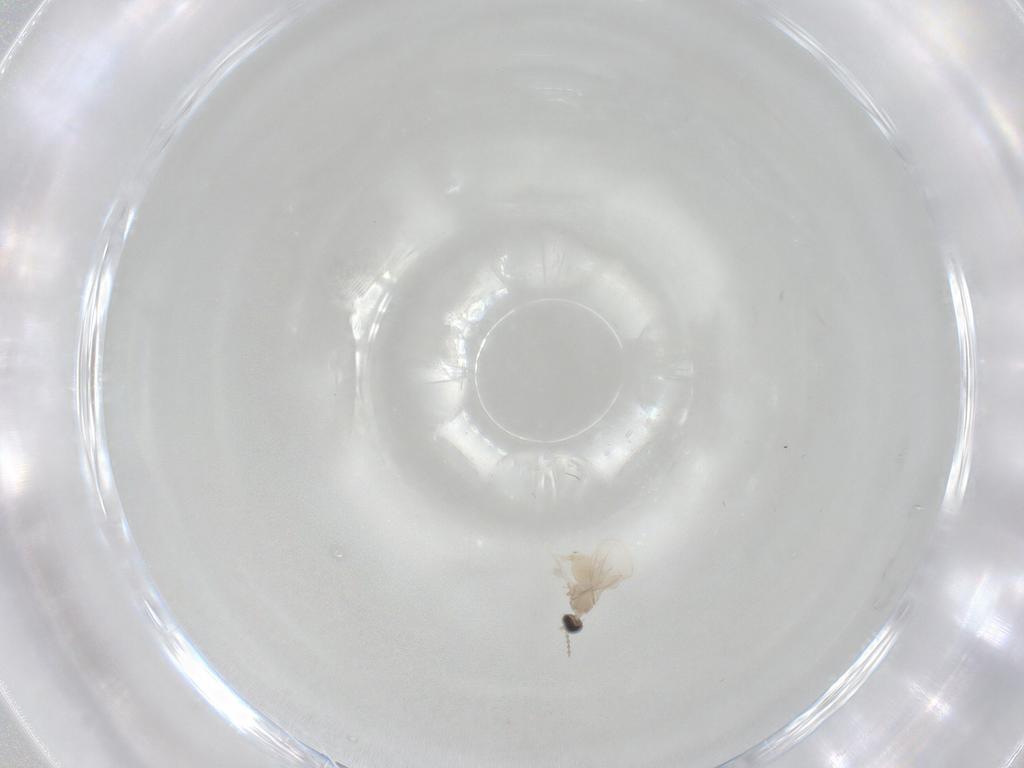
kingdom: Animalia
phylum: Arthropoda
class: Insecta
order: Diptera
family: Cecidomyiidae
